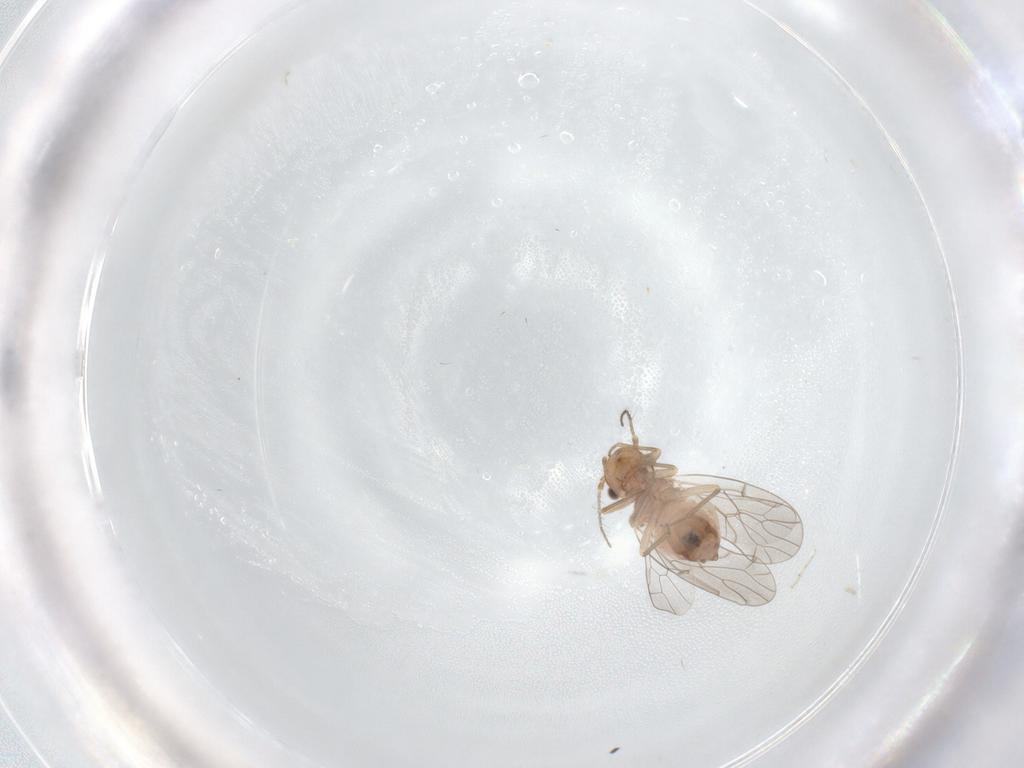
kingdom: Animalia
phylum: Arthropoda
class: Insecta
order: Psocodea
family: Ectopsocidae
